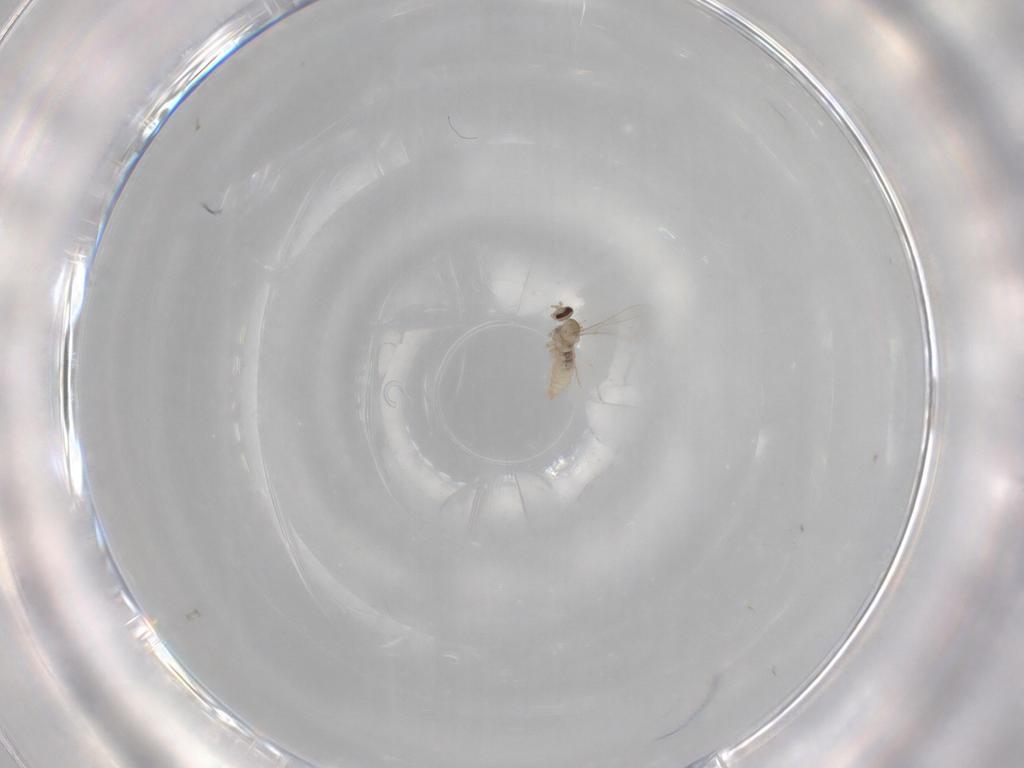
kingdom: Animalia
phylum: Arthropoda
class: Insecta
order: Diptera
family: Cecidomyiidae
